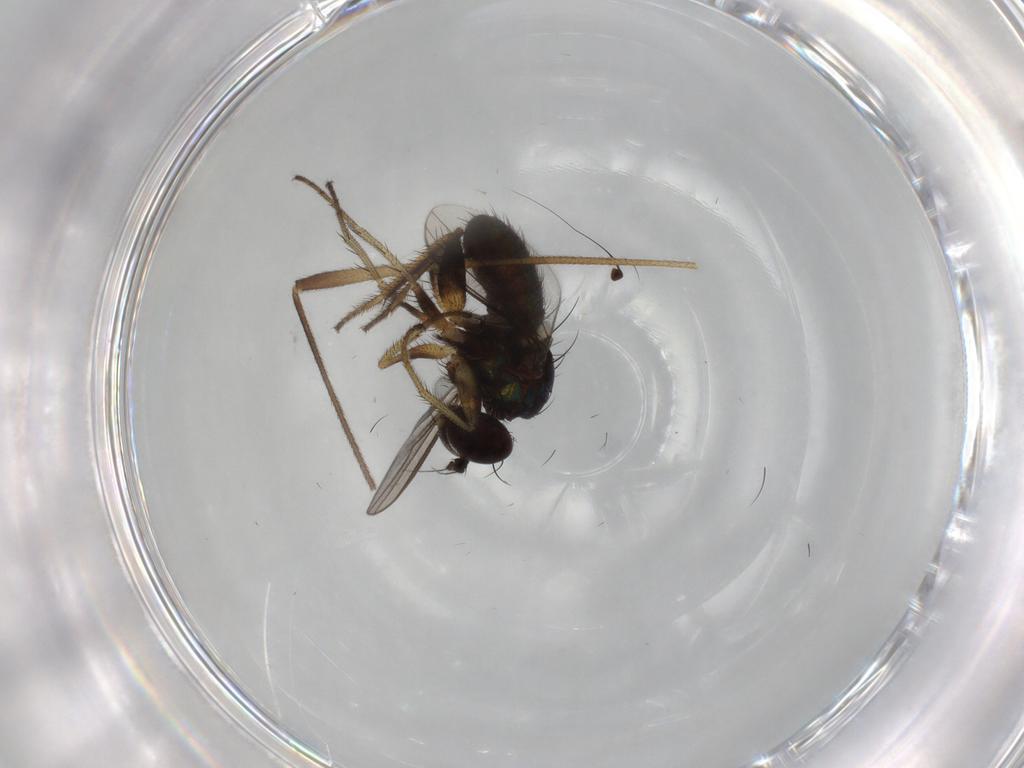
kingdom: Animalia
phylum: Arthropoda
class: Insecta
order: Diptera
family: Dolichopodidae
